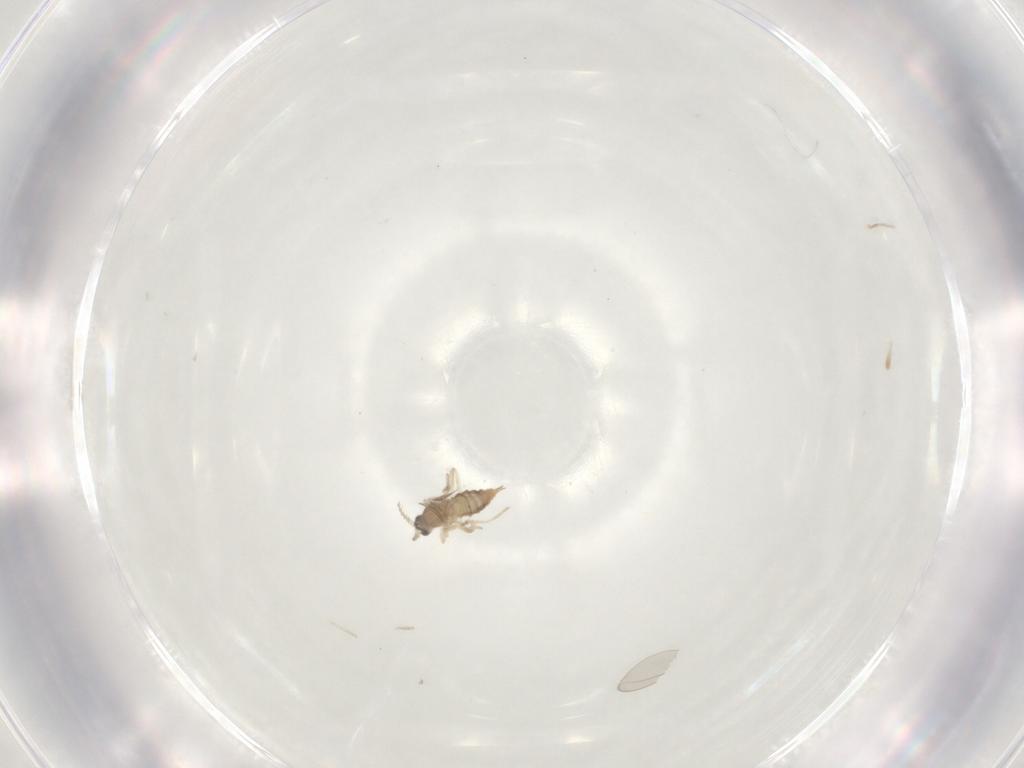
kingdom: Animalia
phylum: Arthropoda
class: Insecta
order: Diptera
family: Cecidomyiidae
